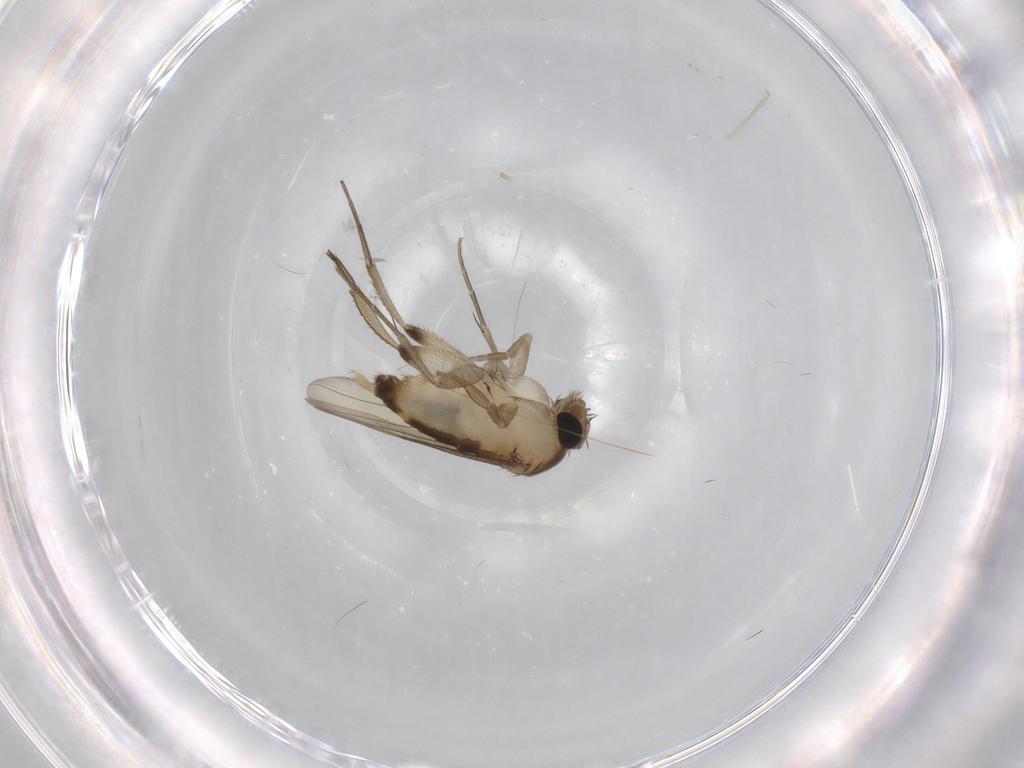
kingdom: Animalia
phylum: Arthropoda
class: Insecta
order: Diptera
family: Phoridae
